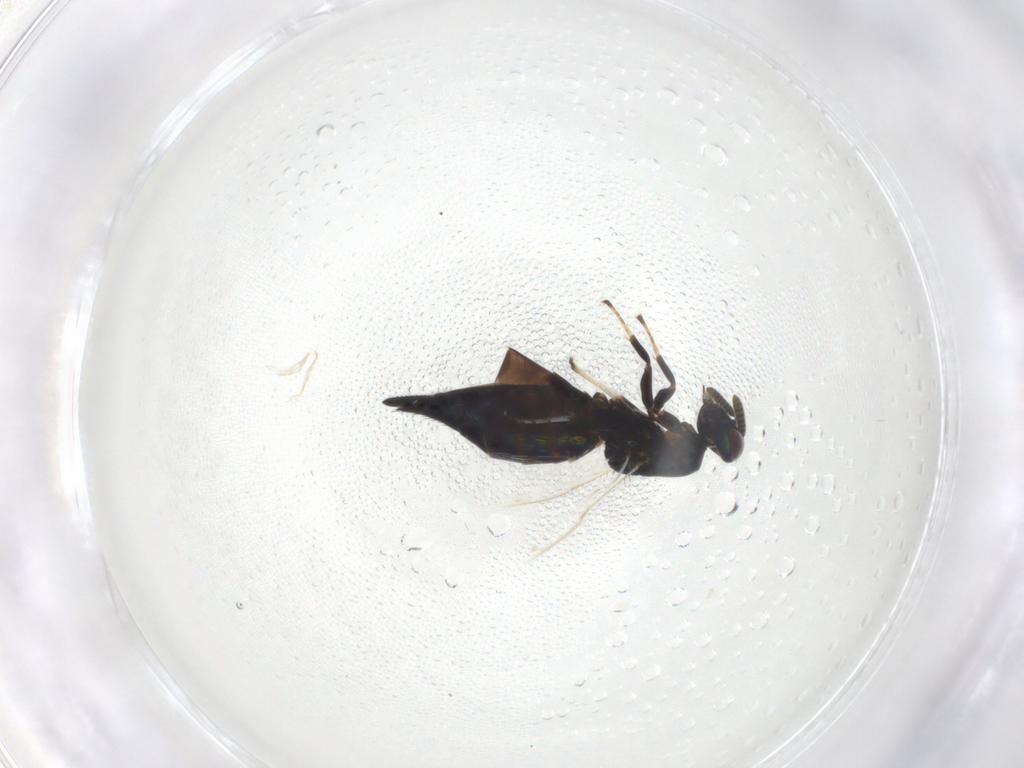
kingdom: Animalia
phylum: Arthropoda
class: Insecta
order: Hymenoptera
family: Pteromalidae
